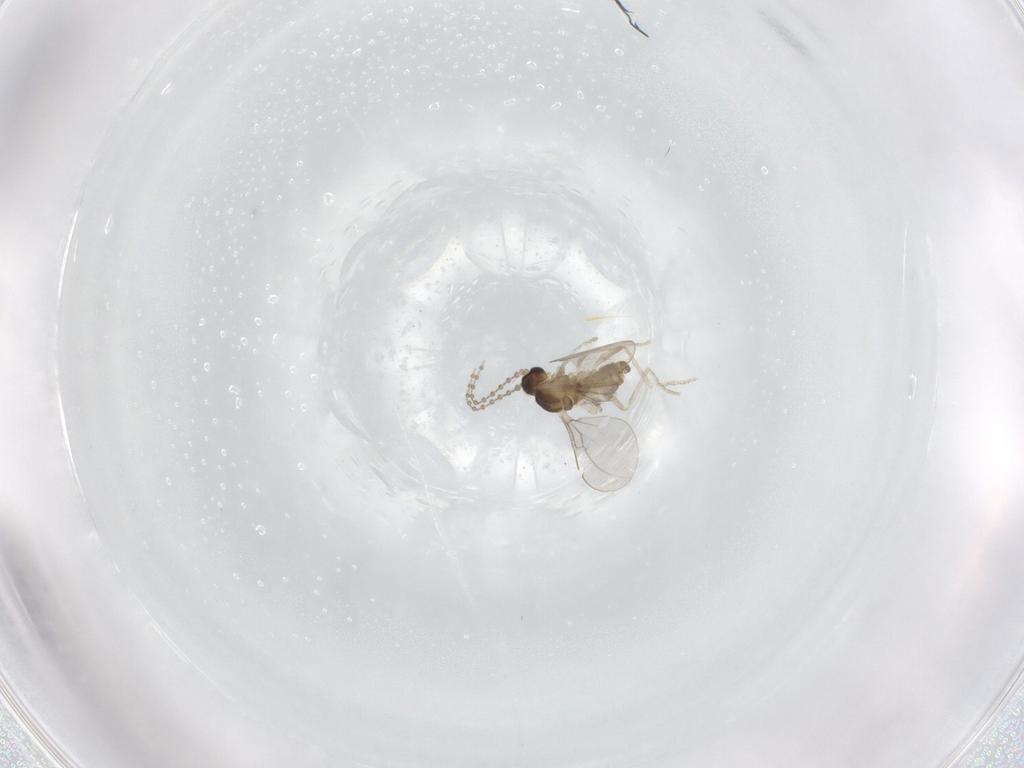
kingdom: Animalia
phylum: Arthropoda
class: Insecta
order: Diptera
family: Cecidomyiidae
